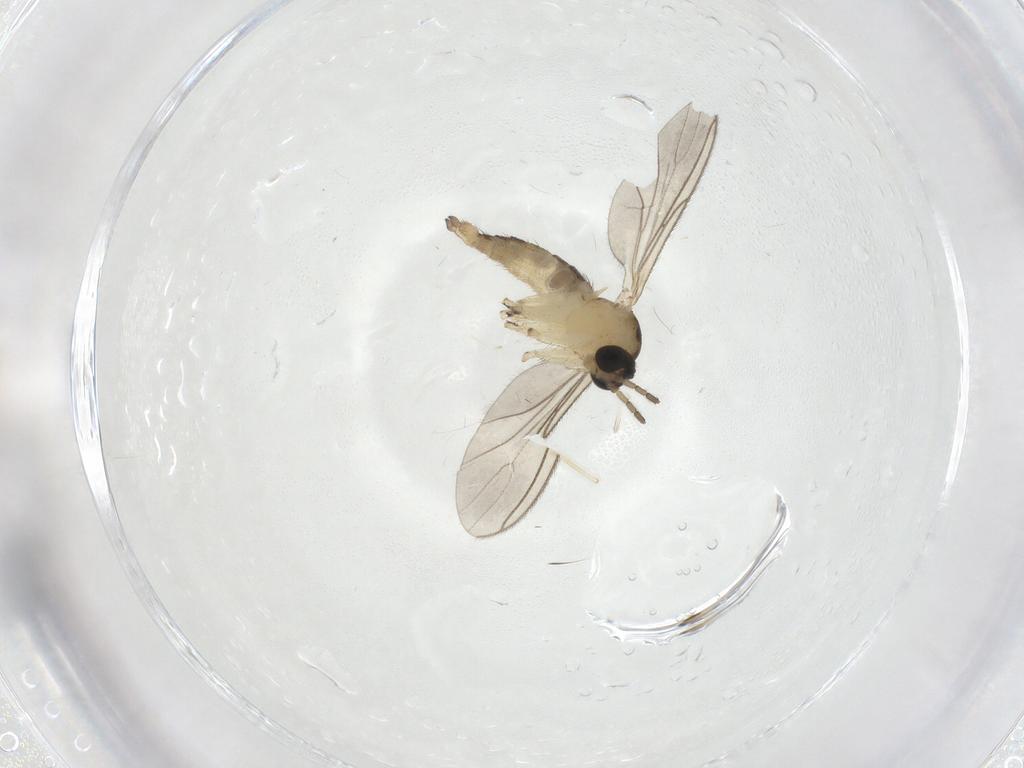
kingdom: Animalia
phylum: Arthropoda
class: Insecta
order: Diptera
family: Sciaridae
